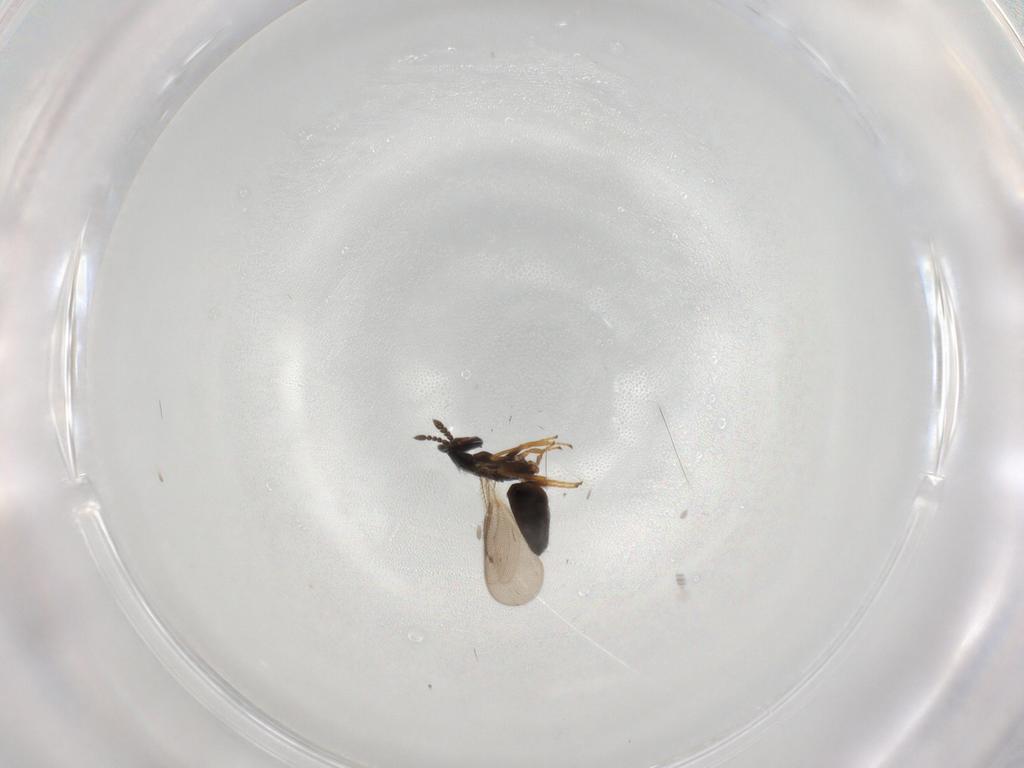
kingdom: Animalia
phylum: Arthropoda
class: Insecta
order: Hymenoptera
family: Eulophidae
